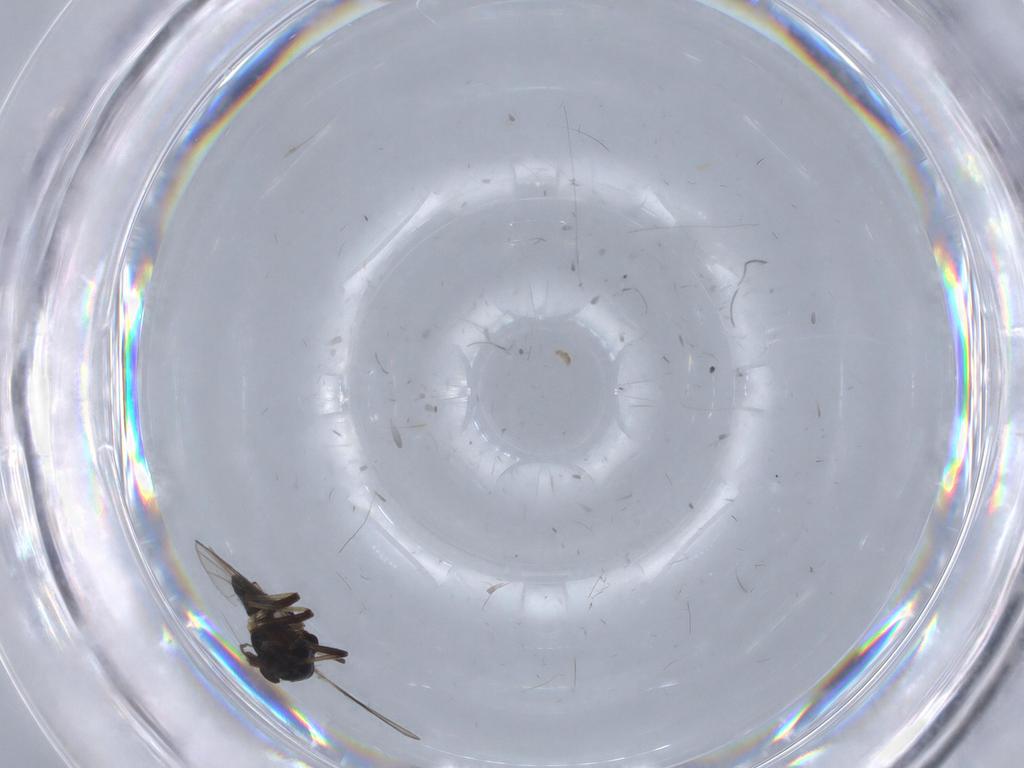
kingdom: Animalia
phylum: Arthropoda
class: Insecta
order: Diptera
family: Chironomidae
